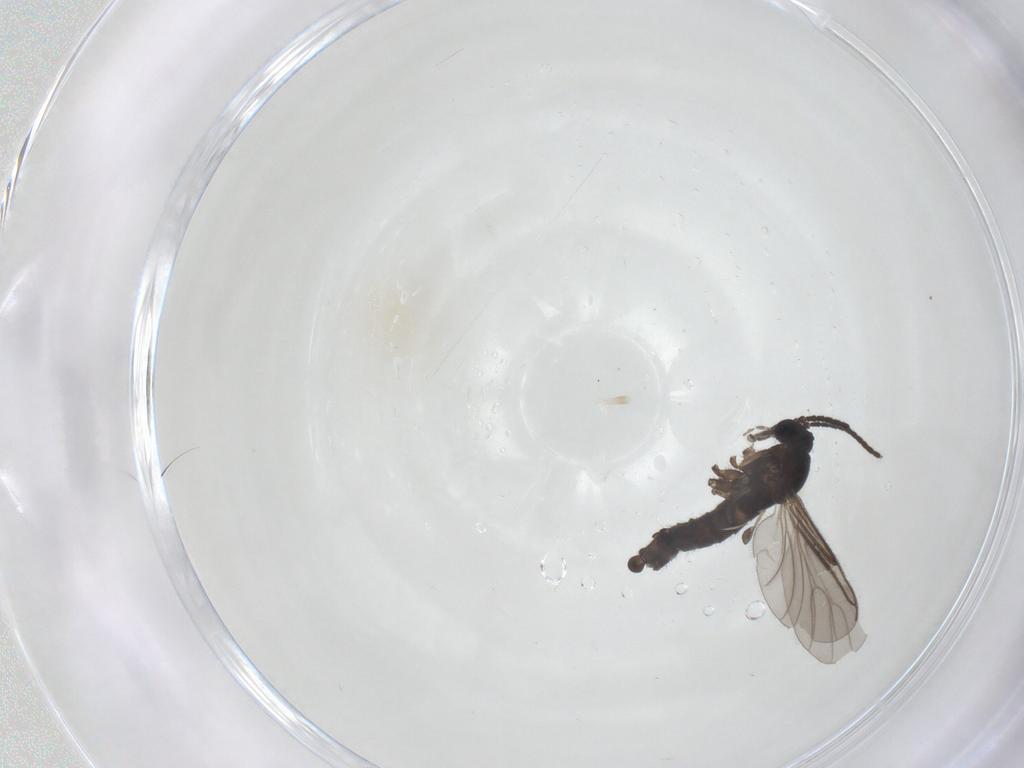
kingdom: Animalia
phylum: Arthropoda
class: Insecta
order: Diptera
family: Sciaridae
